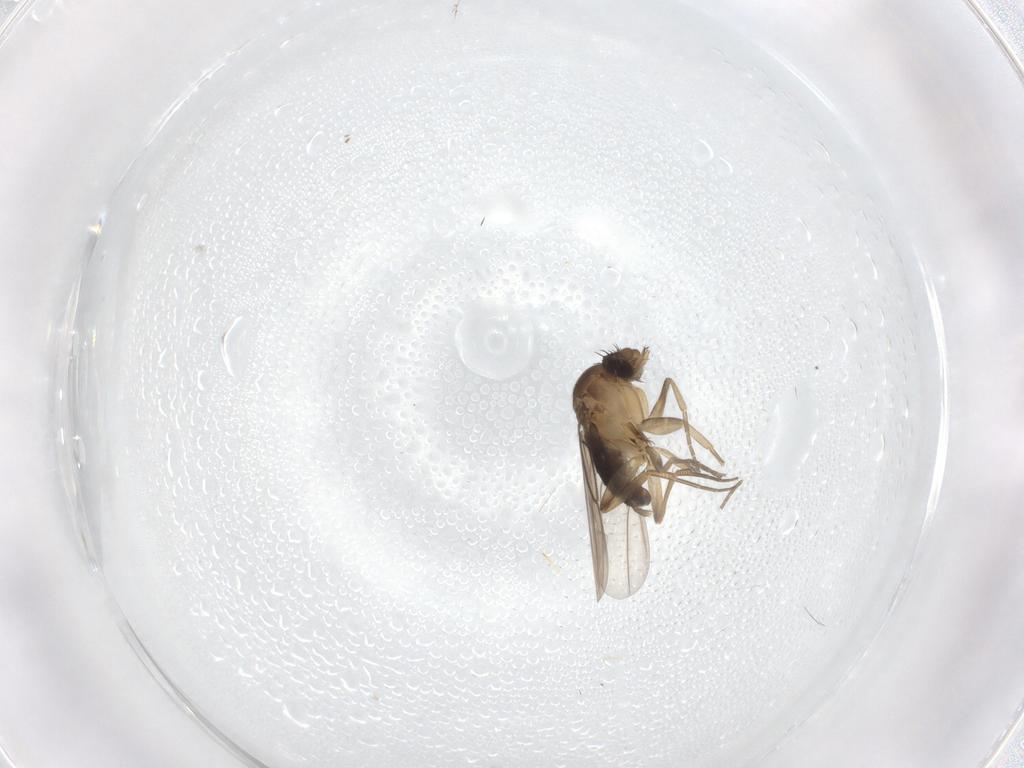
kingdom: Animalia
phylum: Arthropoda
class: Insecta
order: Diptera
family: Phoridae
